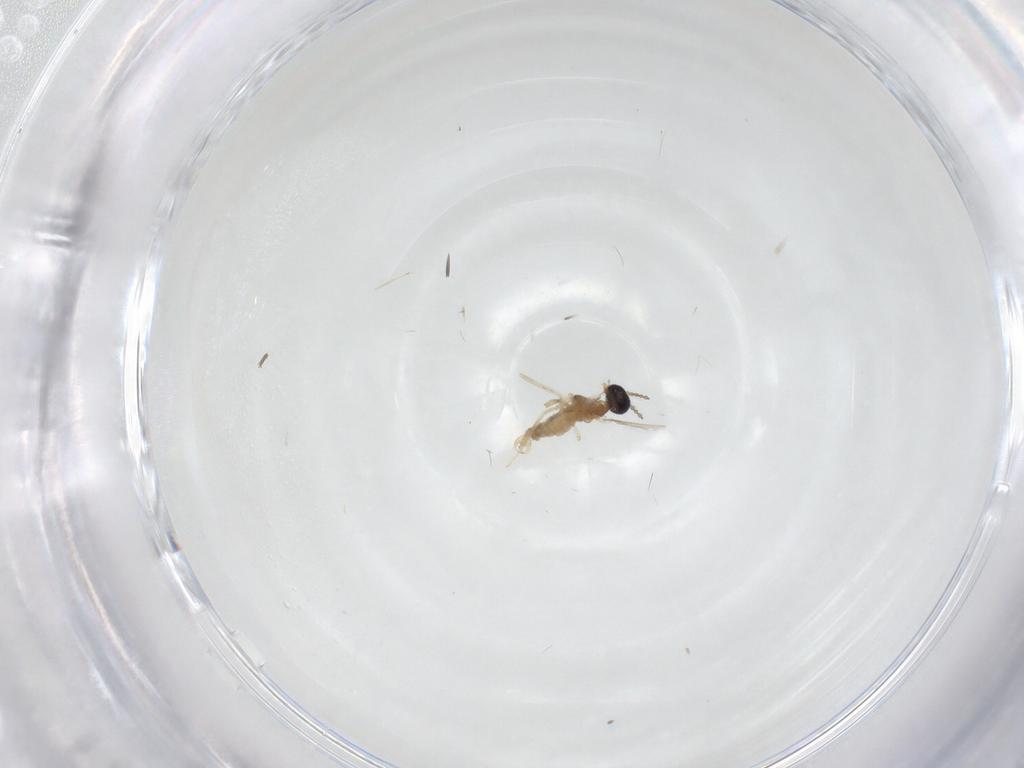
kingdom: Animalia
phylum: Arthropoda
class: Insecta
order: Diptera
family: Cecidomyiidae
